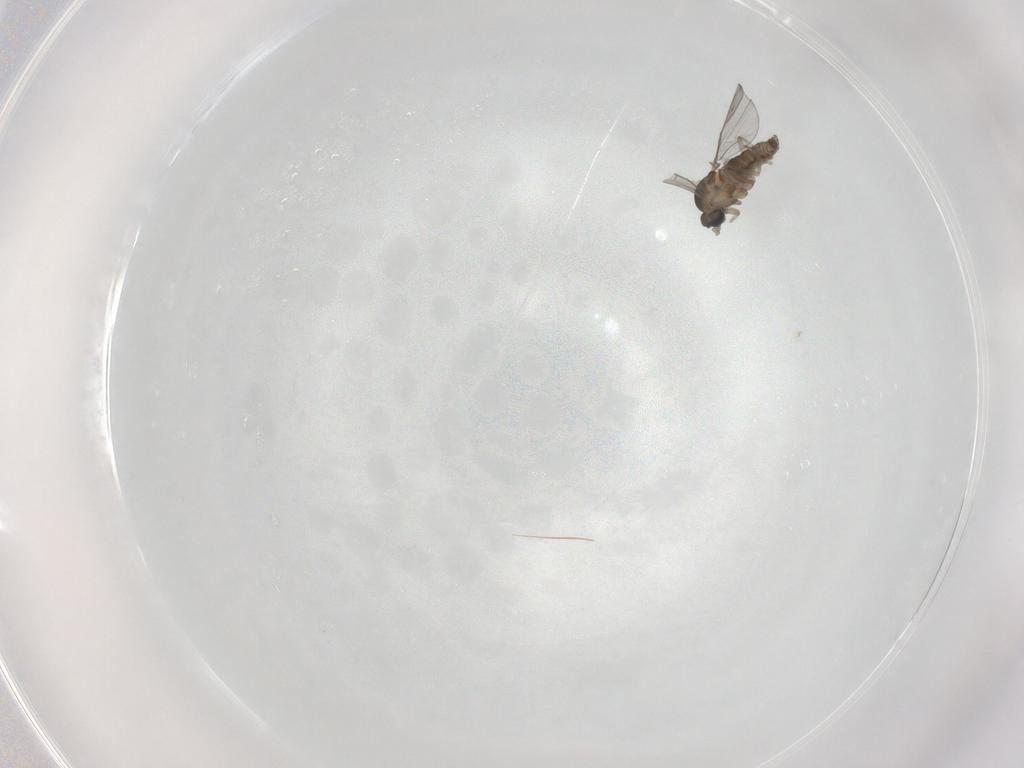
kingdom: Animalia
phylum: Arthropoda
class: Insecta
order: Diptera
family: Cecidomyiidae
